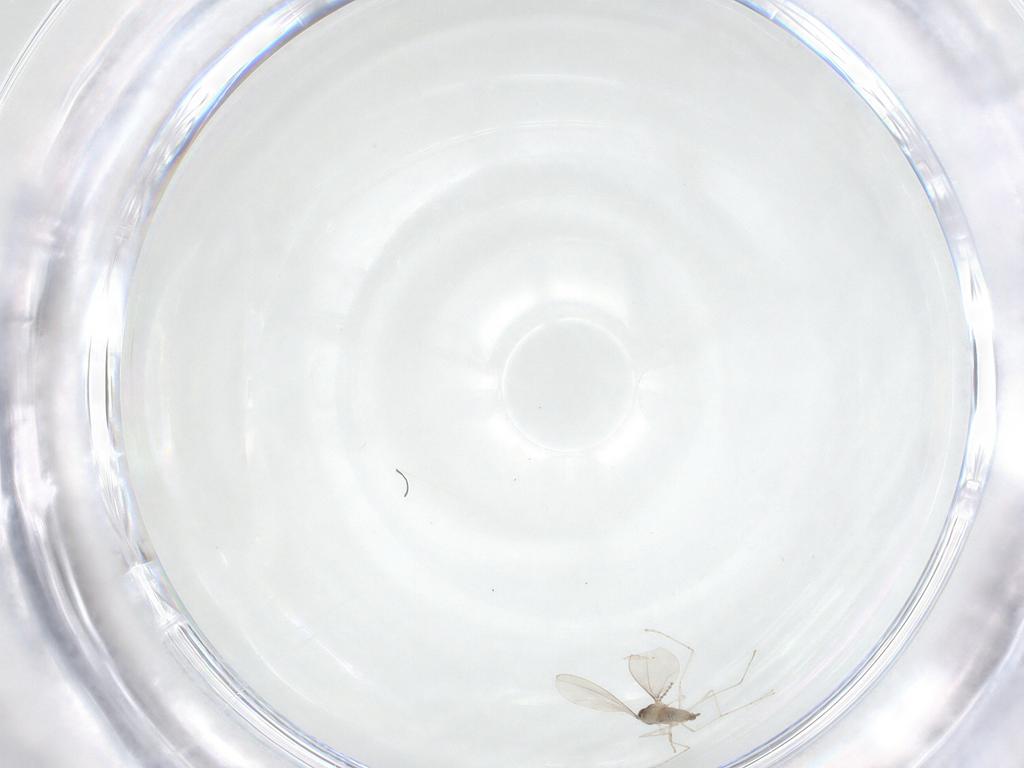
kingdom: Animalia
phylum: Arthropoda
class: Insecta
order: Diptera
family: Cecidomyiidae
